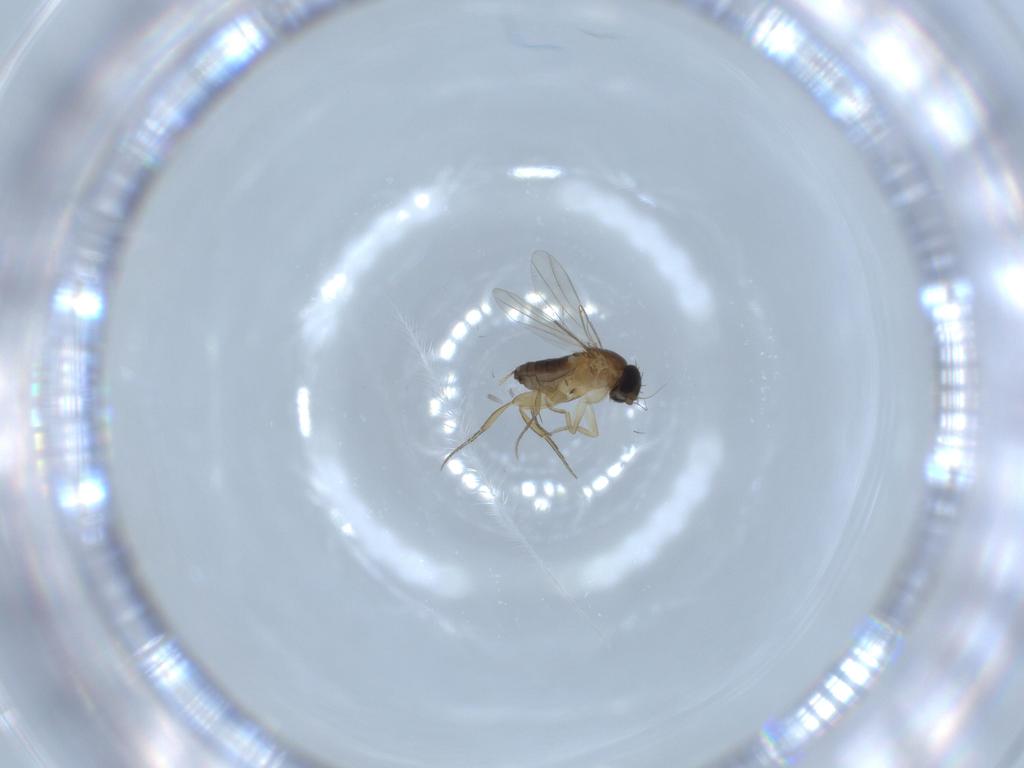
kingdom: Animalia
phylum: Arthropoda
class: Insecta
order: Diptera
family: Phoridae
